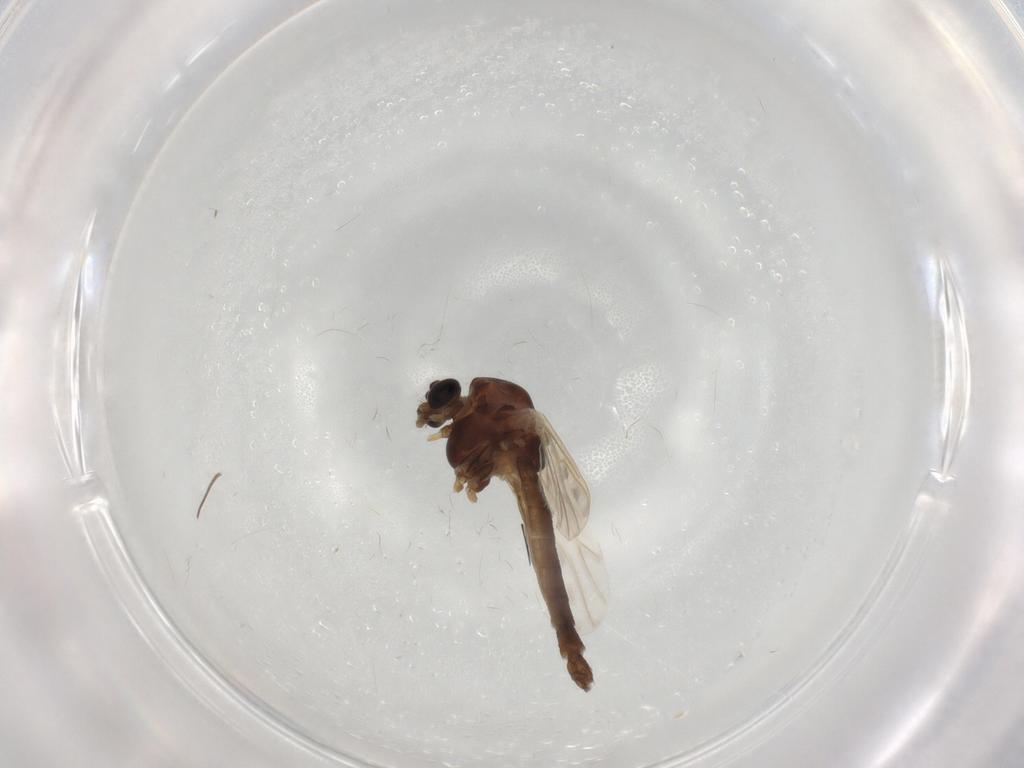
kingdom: Animalia
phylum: Arthropoda
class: Insecta
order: Diptera
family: Chironomidae
